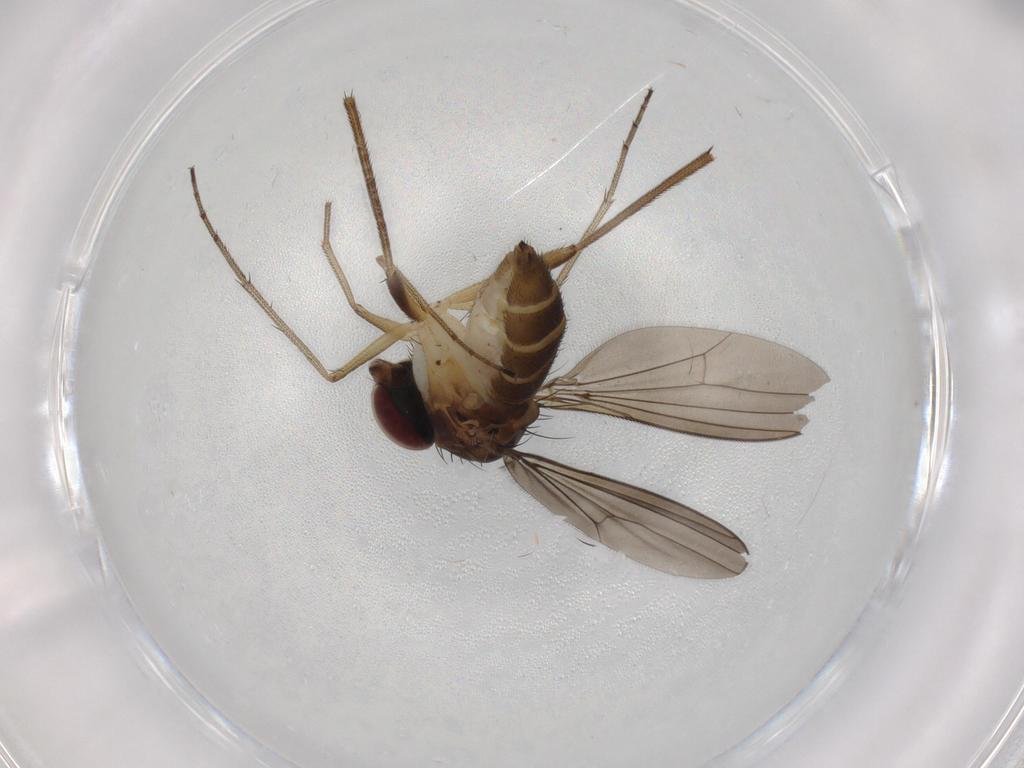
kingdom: Animalia
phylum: Arthropoda
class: Insecta
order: Diptera
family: Dolichopodidae
